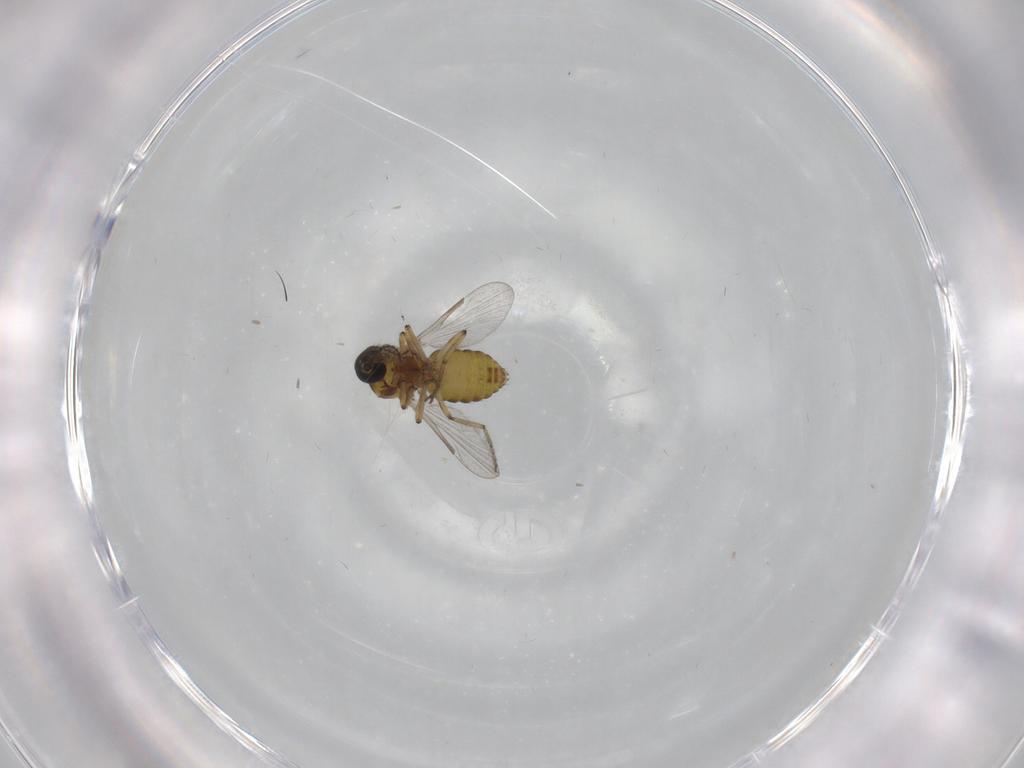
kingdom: Animalia
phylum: Arthropoda
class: Insecta
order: Diptera
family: Ceratopogonidae
